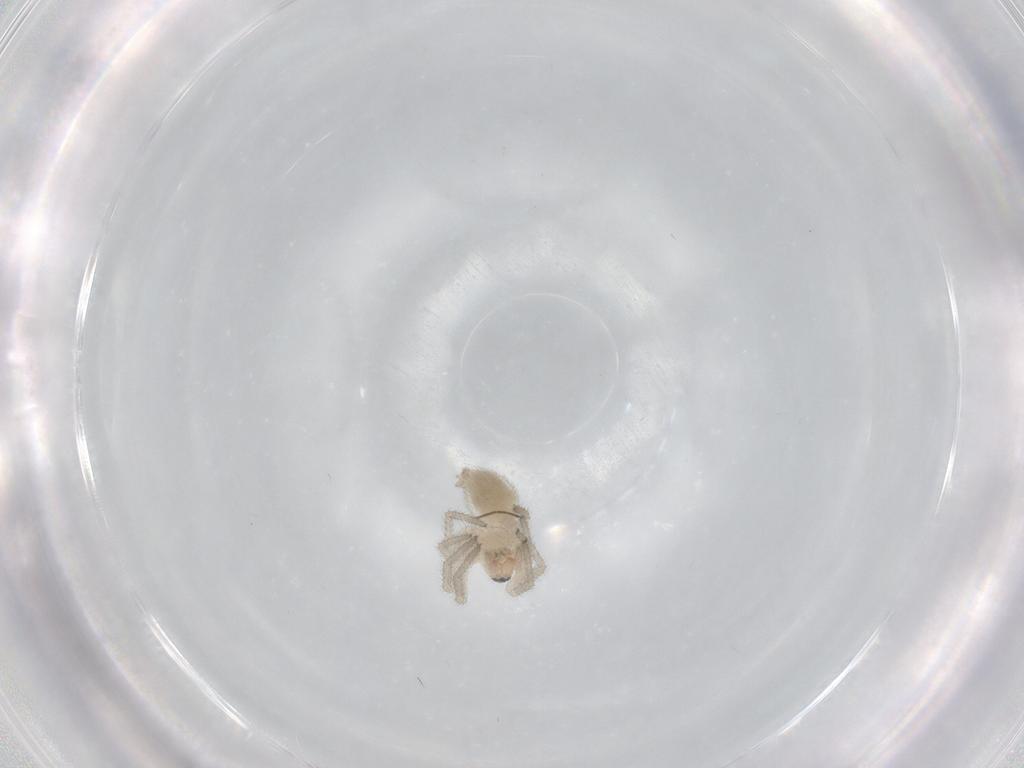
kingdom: Animalia
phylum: Arthropoda
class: Arachnida
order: Araneae
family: Linyphiidae
